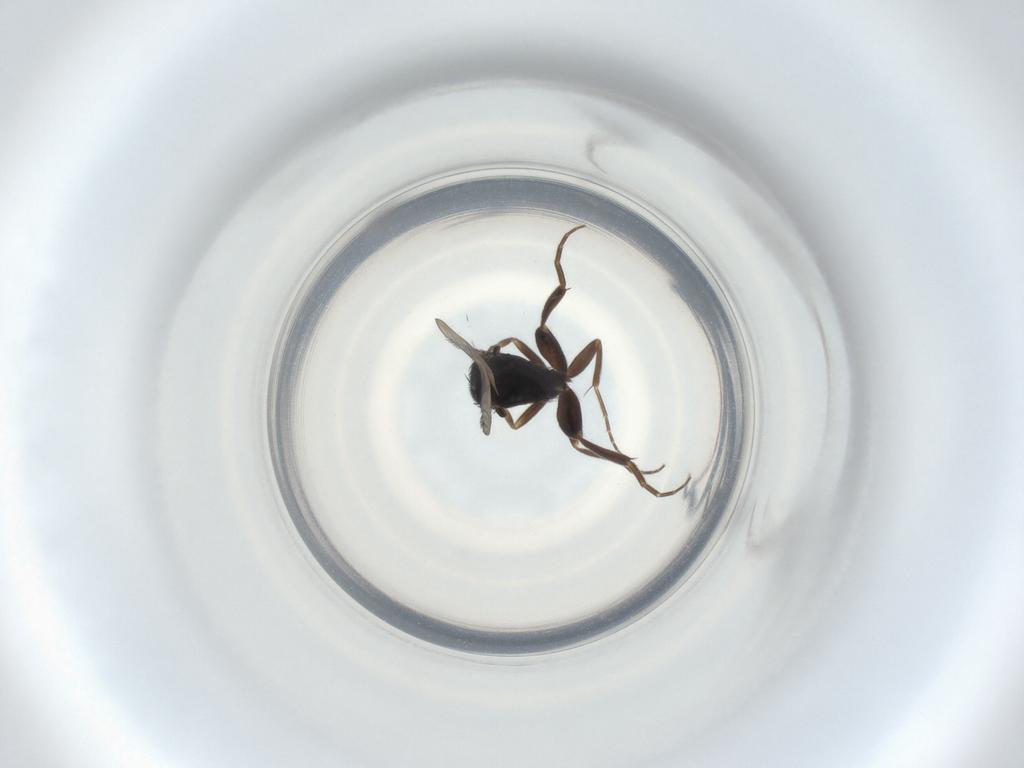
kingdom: Animalia
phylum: Arthropoda
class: Insecta
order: Diptera
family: Phoridae
